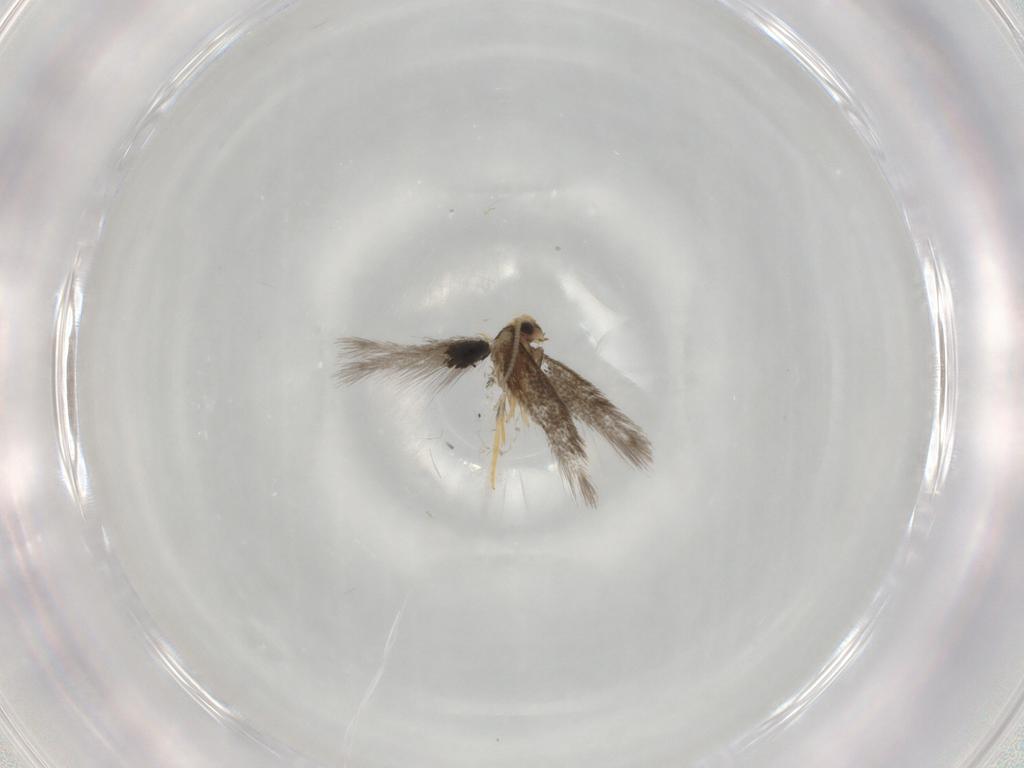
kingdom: Animalia
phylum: Arthropoda
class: Insecta
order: Lepidoptera
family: Nepticulidae
